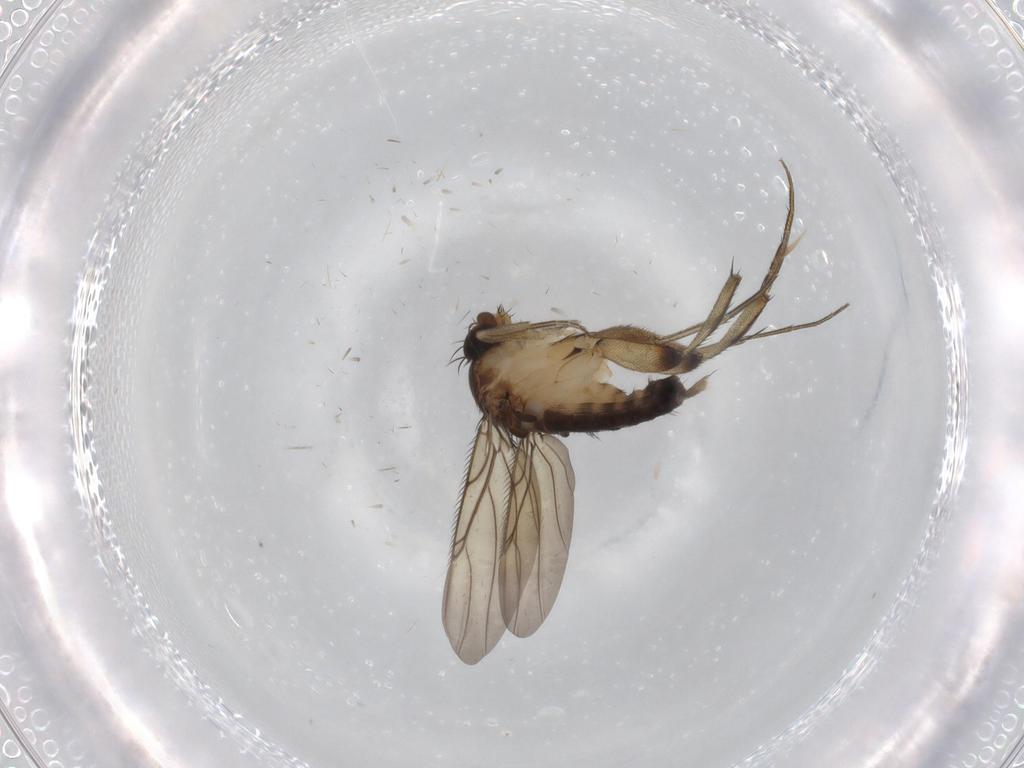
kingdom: Animalia
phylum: Arthropoda
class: Insecta
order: Diptera
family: Phoridae
